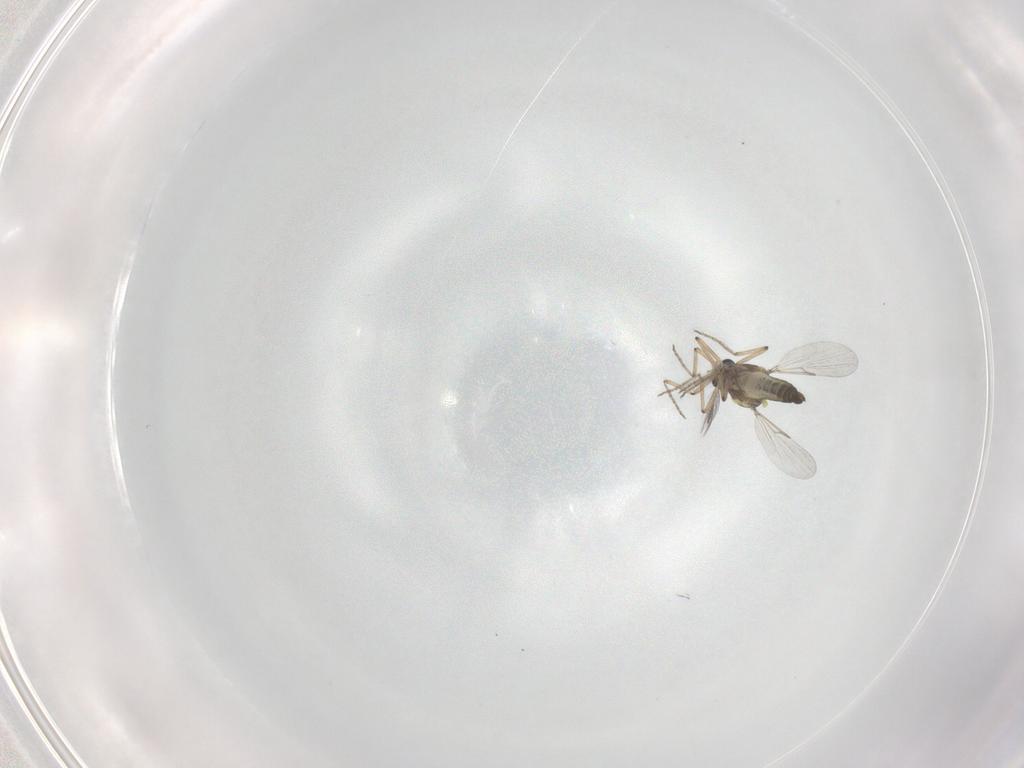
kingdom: Animalia
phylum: Arthropoda
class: Insecta
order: Diptera
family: Ceratopogonidae
